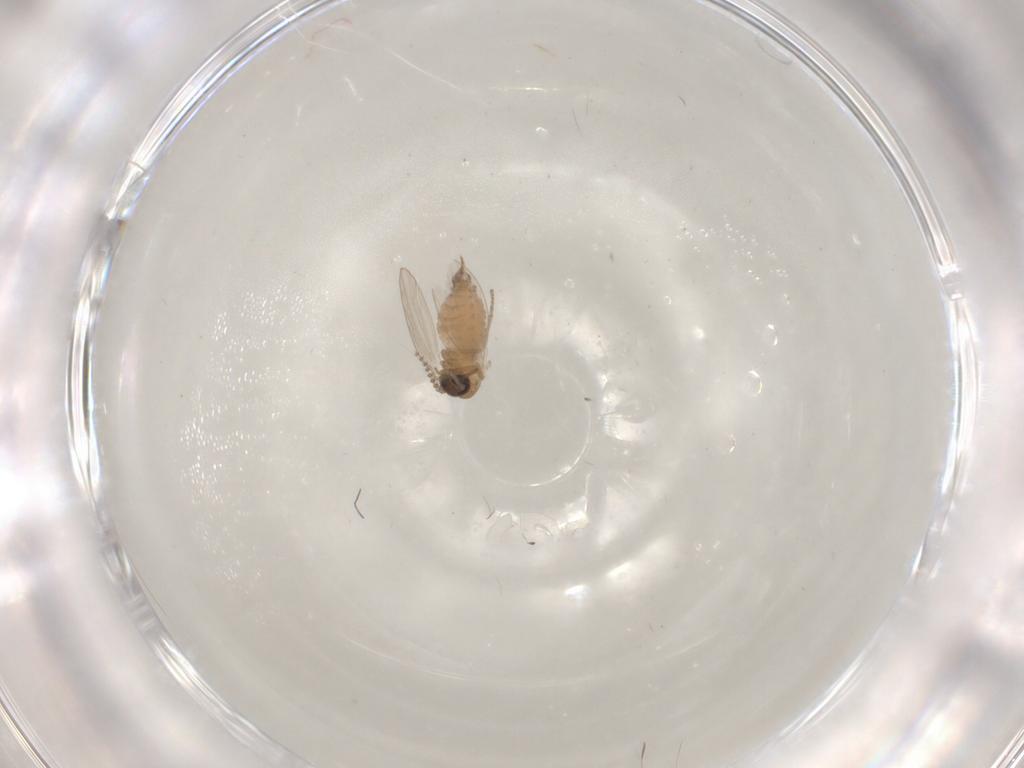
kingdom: Animalia
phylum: Arthropoda
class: Insecta
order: Diptera
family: Psychodidae
